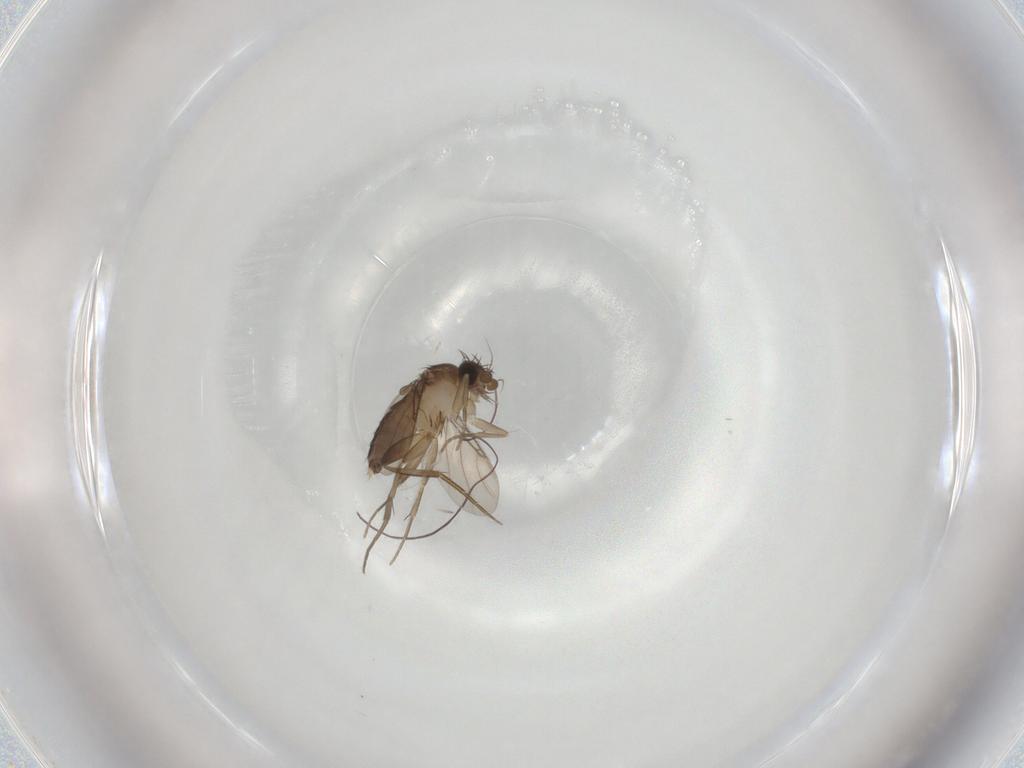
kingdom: Animalia
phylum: Arthropoda
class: Insecta
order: Diptera
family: Phoridae
